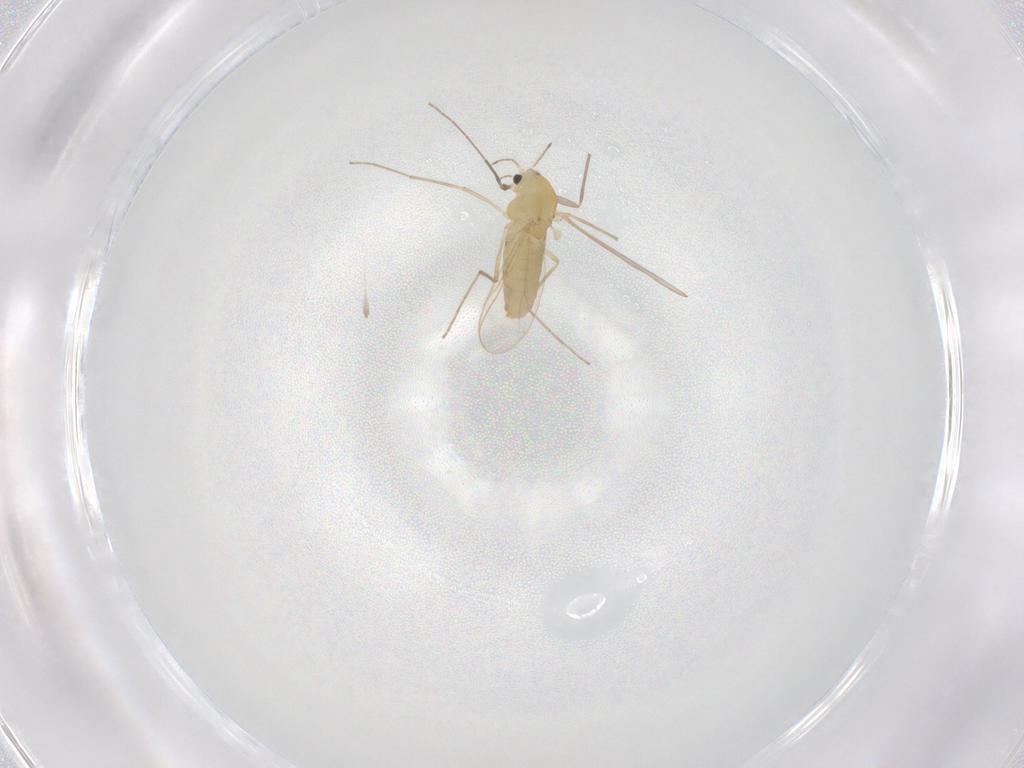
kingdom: Animalia
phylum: Arthropoda
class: Insecta
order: Diptera
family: Mycetophilidae
